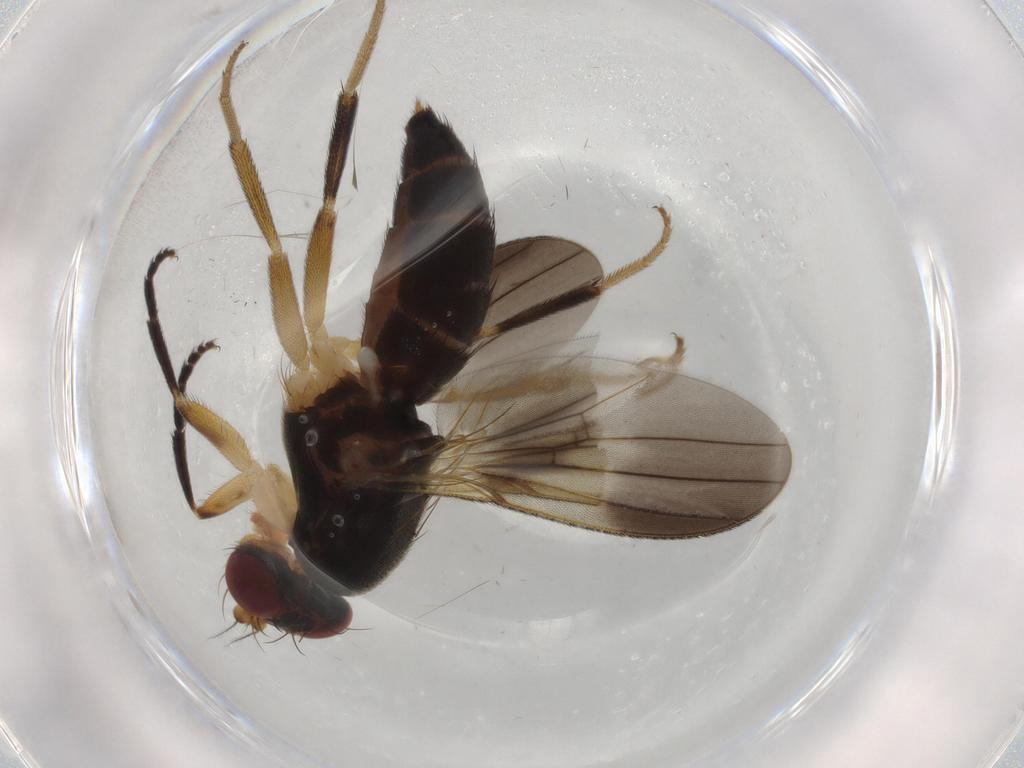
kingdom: Animalia
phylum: Arthropoda
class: Insecta
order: Diptera
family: Clusiidae
